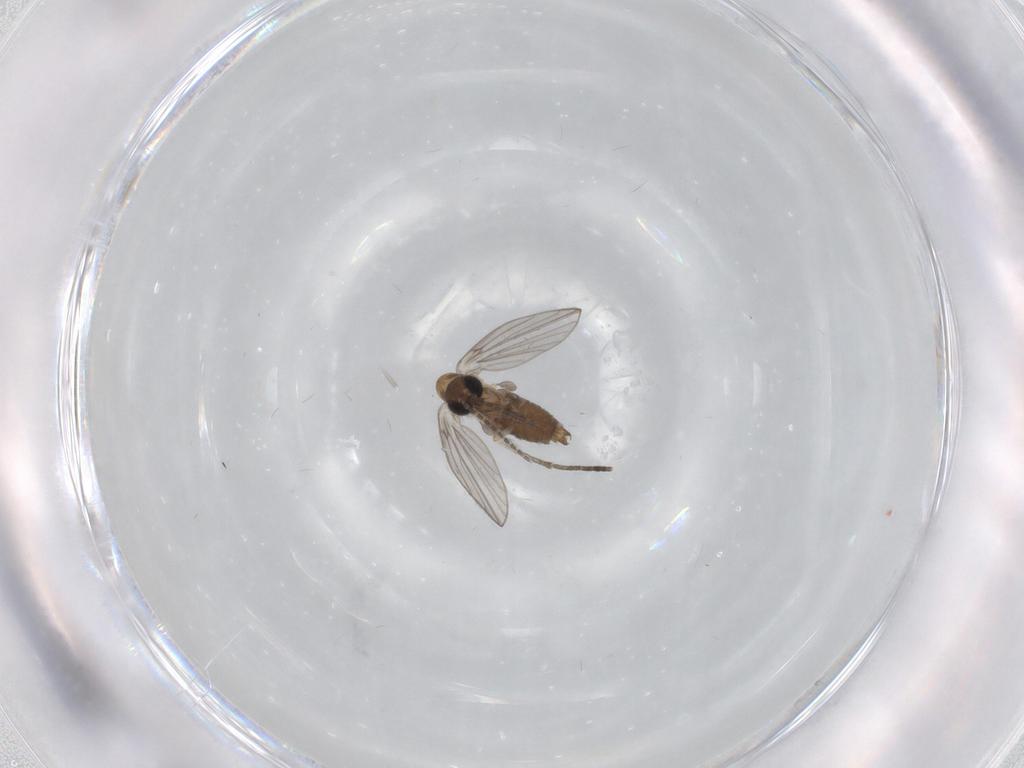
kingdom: Animalia
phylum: Arthropoda
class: Insecta
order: Diptera
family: Psychodidae
